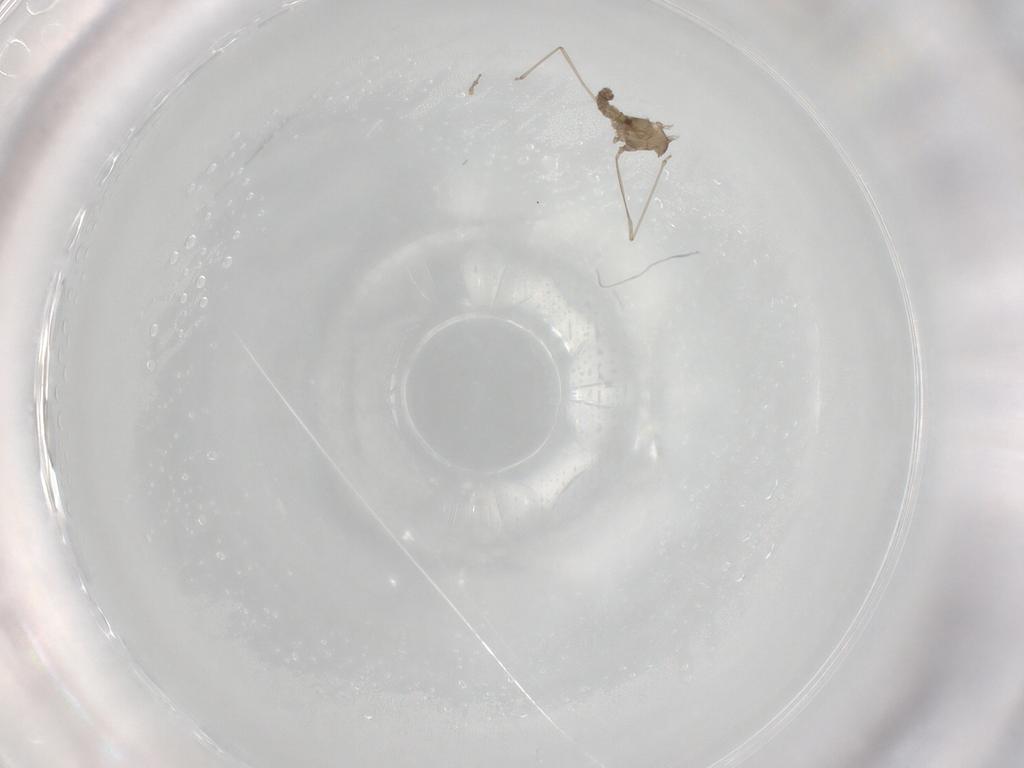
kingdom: Animalia
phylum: Arthropoda
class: Insecta
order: Diptera
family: Cecidomyiidae
